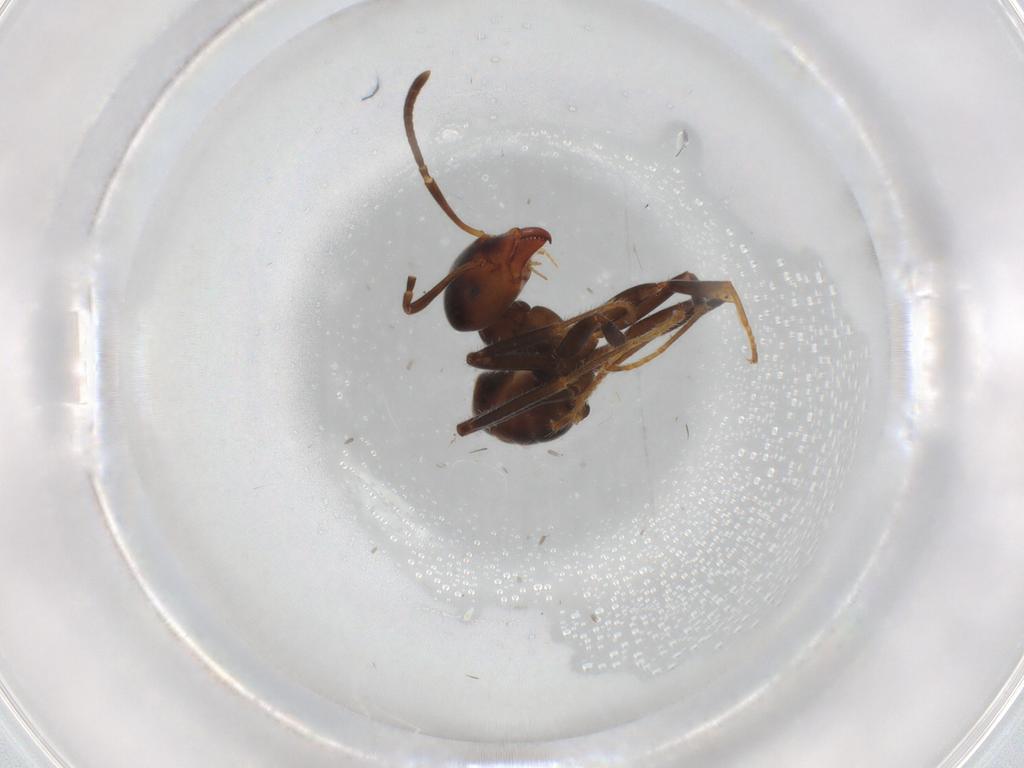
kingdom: Animalia
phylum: Arthropoda
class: Insecta
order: Hymenoptera
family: Formicidae
